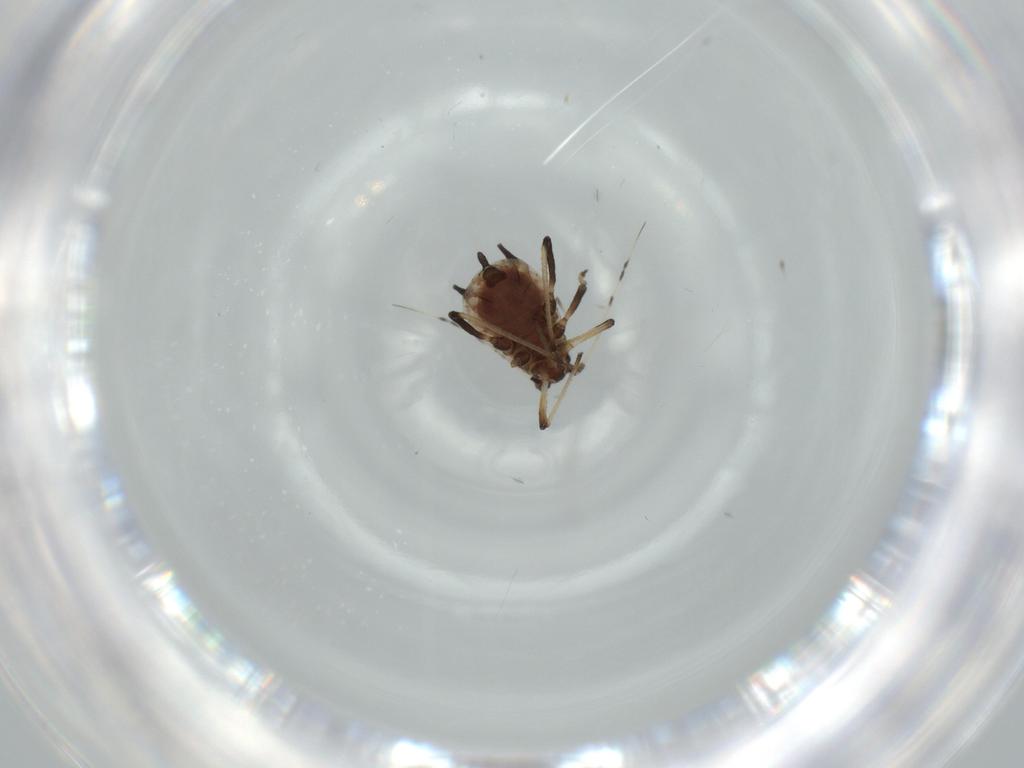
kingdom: Animalia
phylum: Arthropoda
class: Insecta
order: Hemiptera
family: Aphididae
